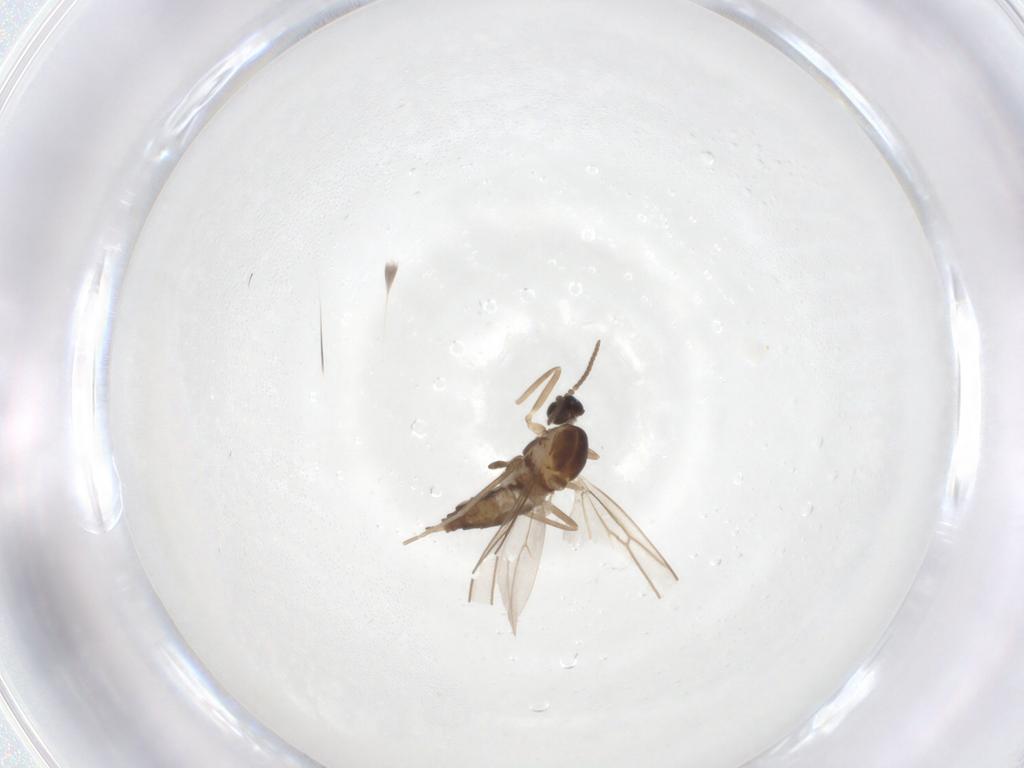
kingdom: Animalia
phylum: Arthropoda
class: Insecta
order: Diptera
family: Cecidomyiidae
